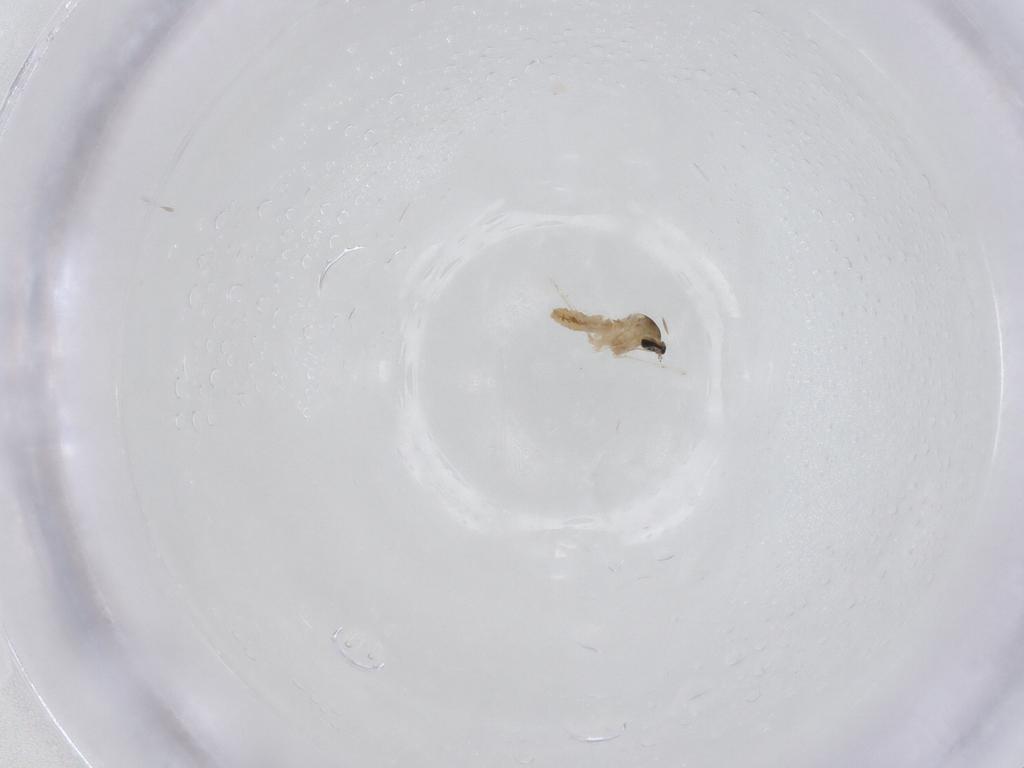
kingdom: Animalia
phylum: Arthropoda
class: Insecta
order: Diptera
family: Cecidomyiidae
